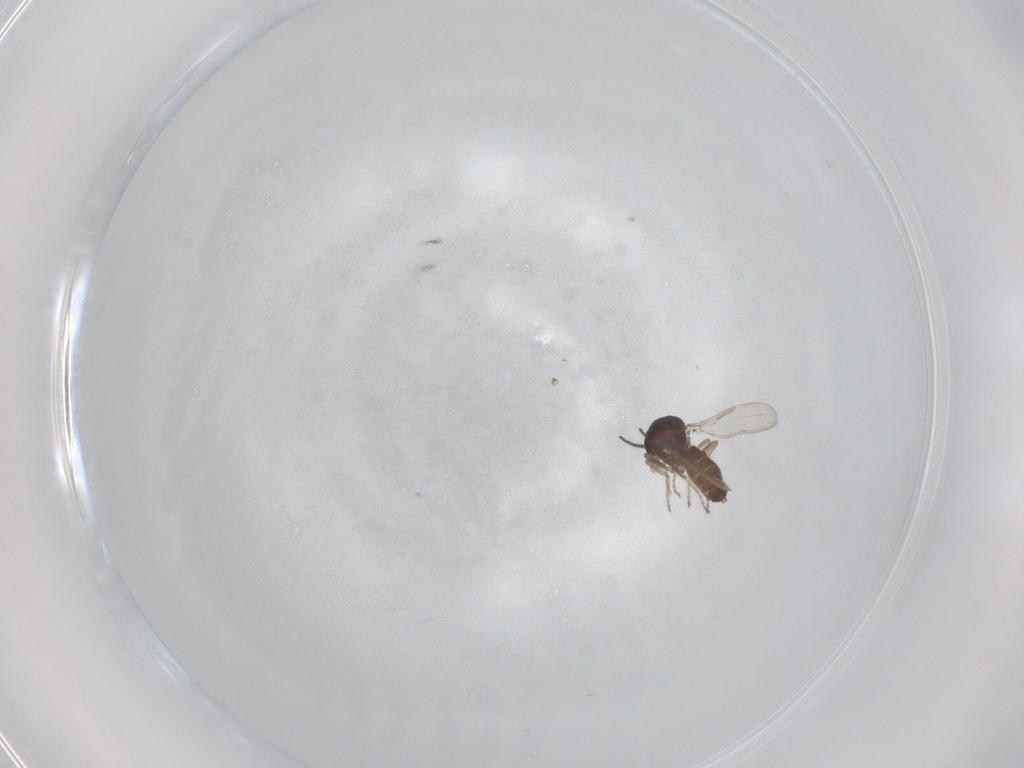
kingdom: Animalia
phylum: Arthropoda
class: Insecta
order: Diptera
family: Ceratopogonidae
